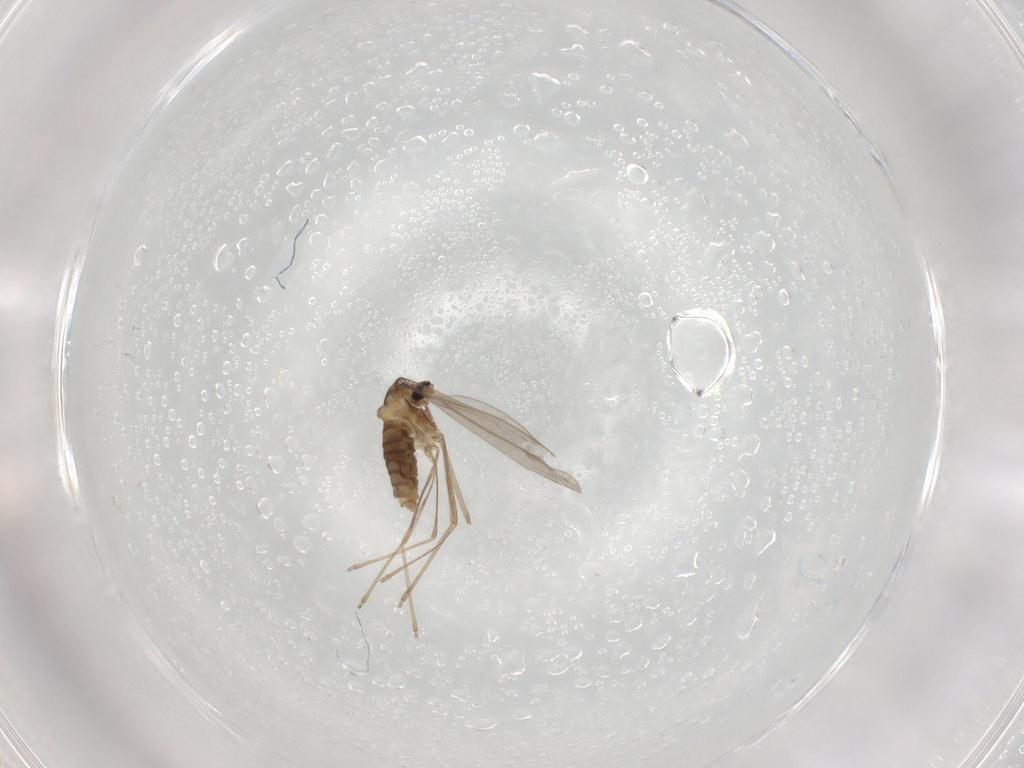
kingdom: Animalia
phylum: Arthropoda
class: Insecta
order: Diptera
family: Cecidomyiidae
